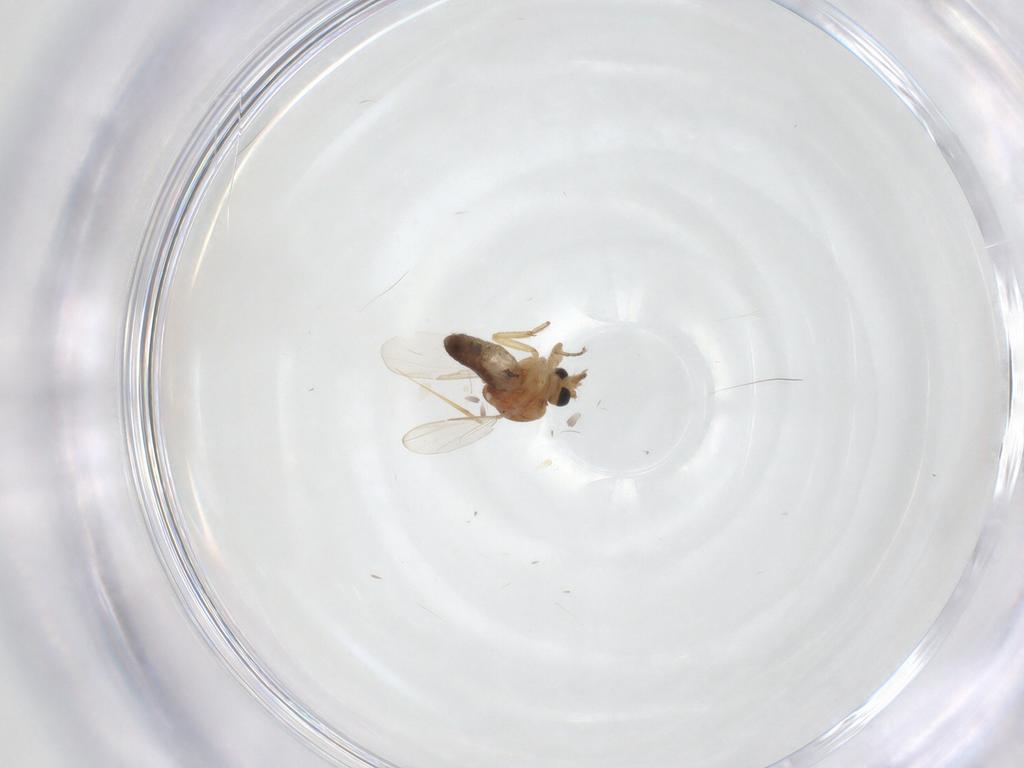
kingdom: Animalia
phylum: Arthropoda
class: Insecta
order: Diptera
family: Ceratopogonidae
